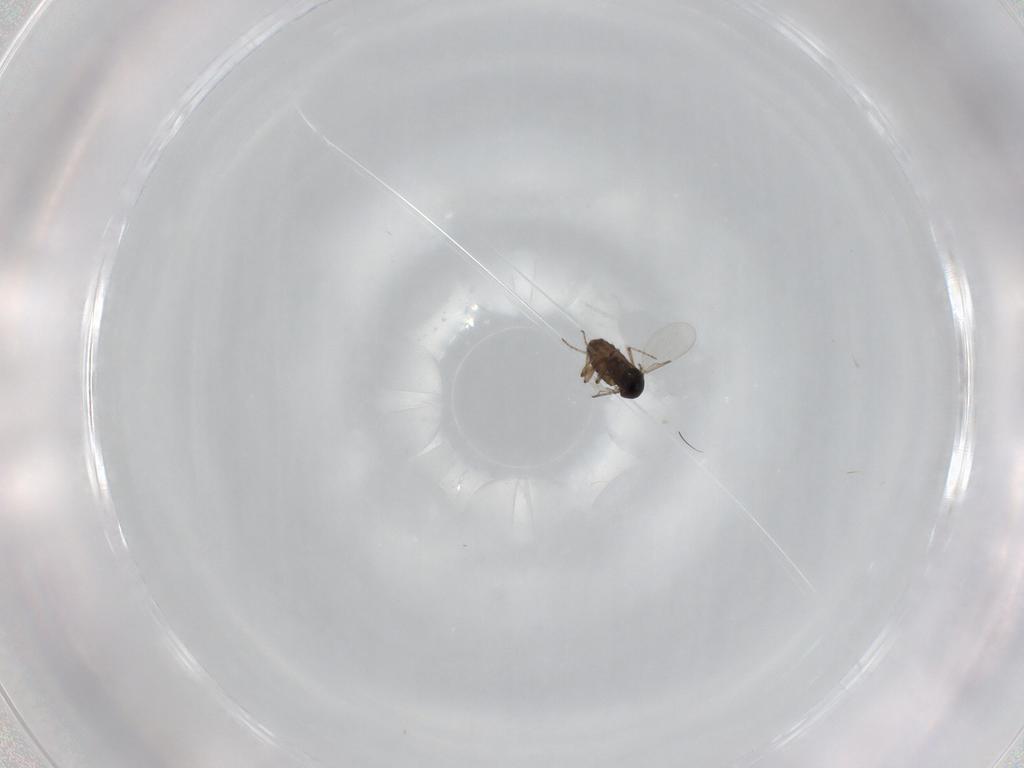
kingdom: Animalia
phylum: Arthropoda
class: Insecta
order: Diptera
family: Ceratopogonidae
